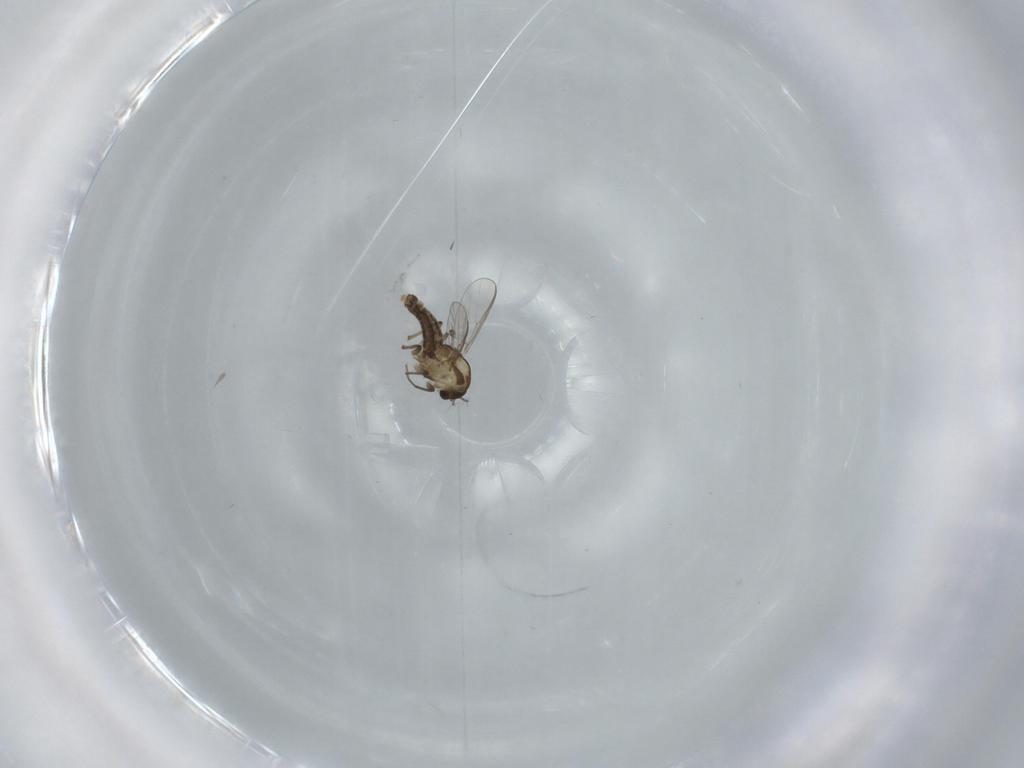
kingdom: Animalia
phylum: Arthropoda
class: Insecta
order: Diptera
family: Chironomidae
